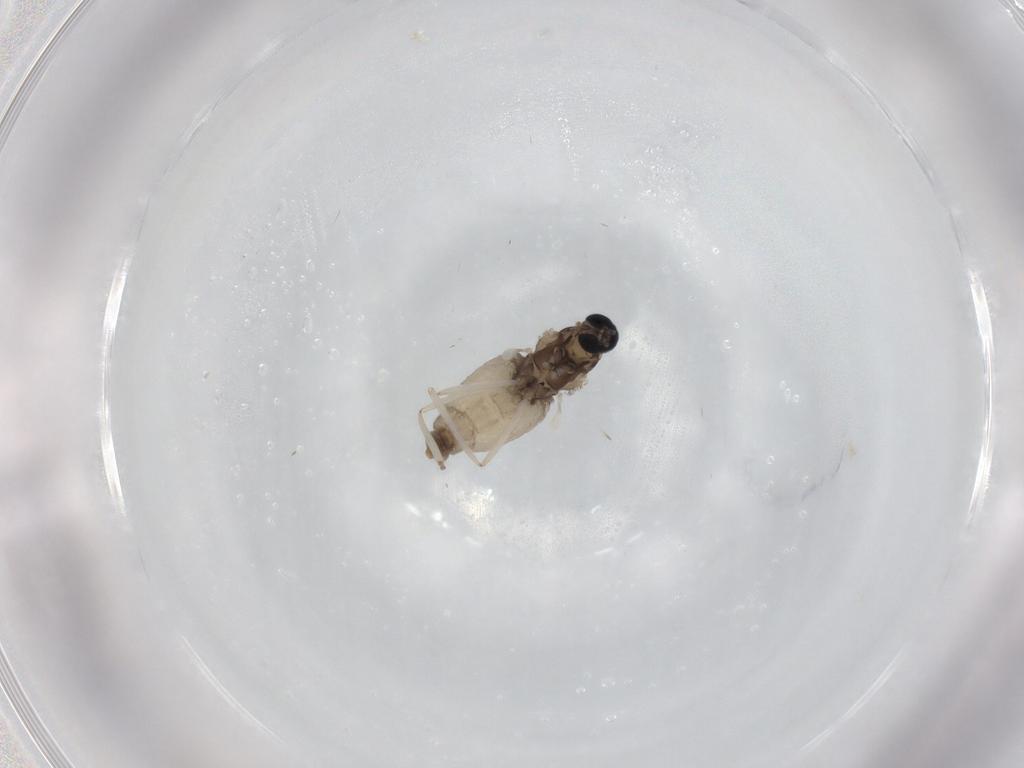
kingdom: Animalia
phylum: Arthropoda
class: Insecta
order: Diptera
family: Cecidomyiidae
